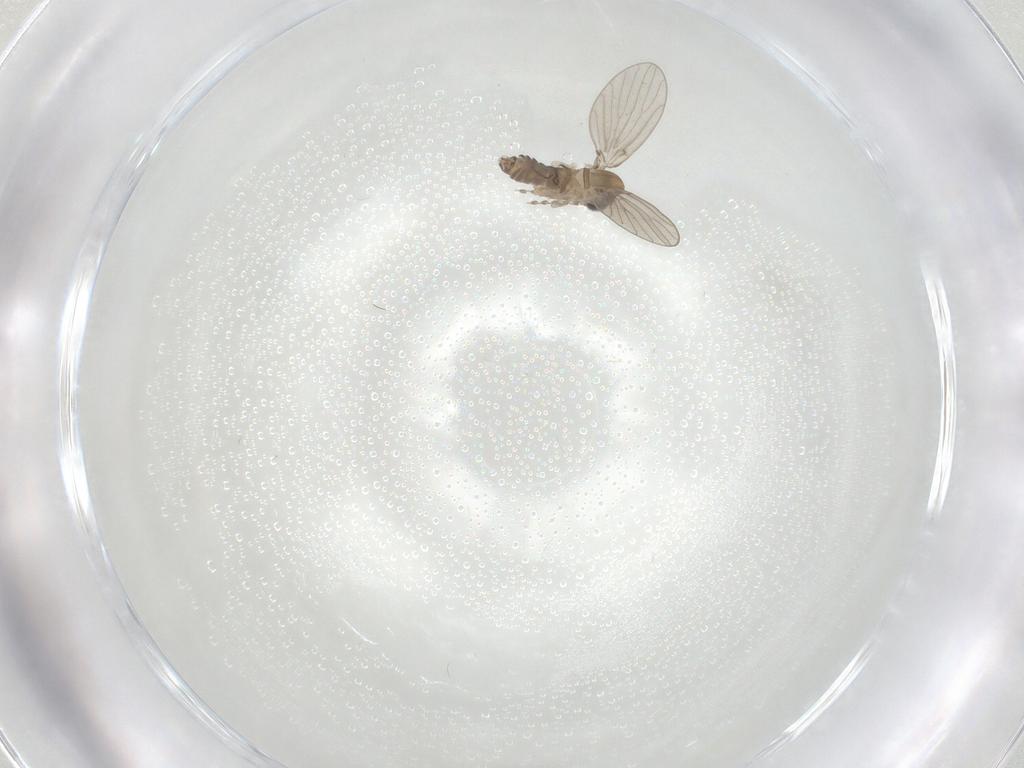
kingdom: Animalia
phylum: Arthropoda
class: Insecta
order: Diptera
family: Psychodidae
